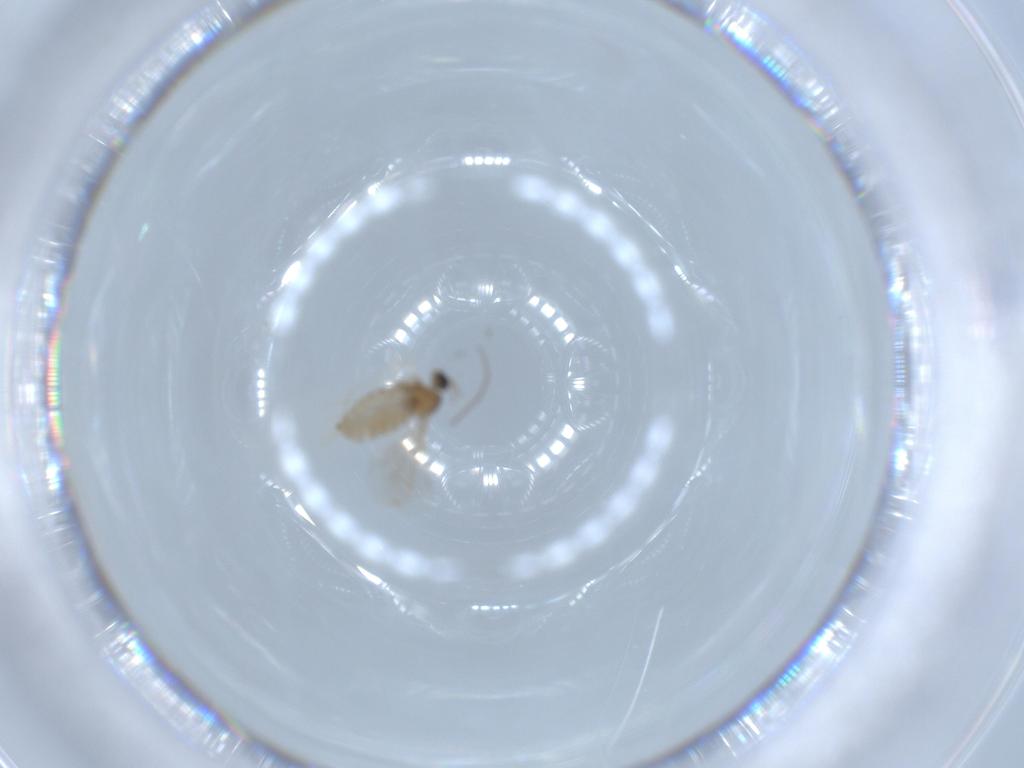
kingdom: Animalia
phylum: Arthropoda
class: Insecta
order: Diptera
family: Cecidomyiidae
